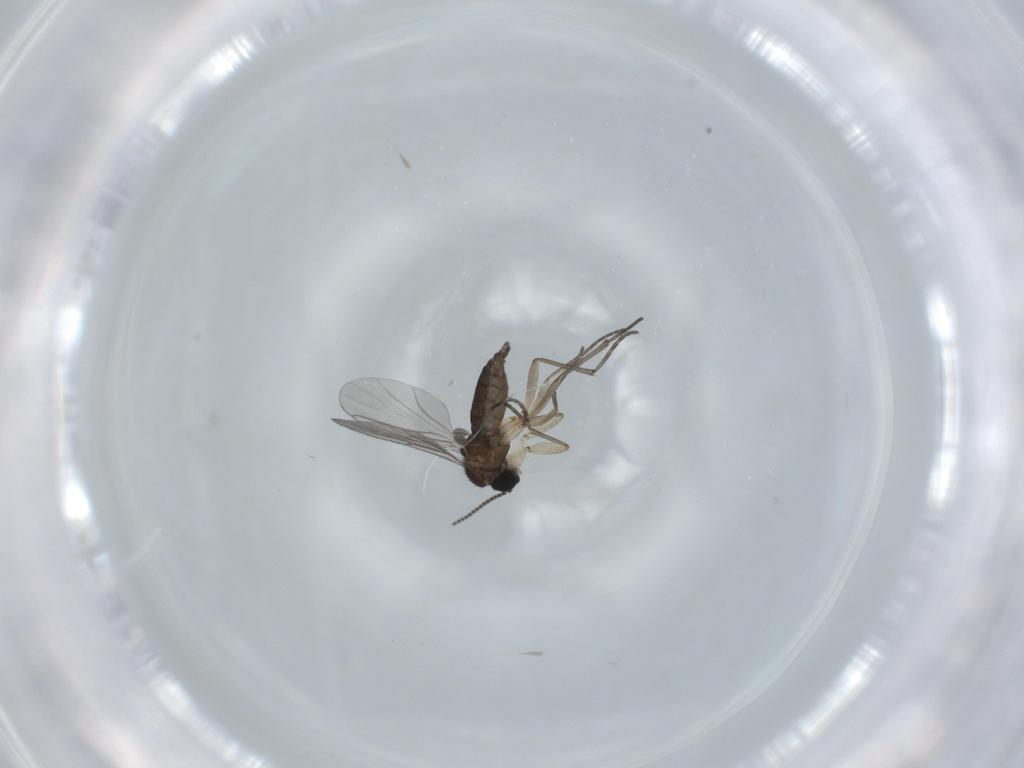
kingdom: Animalia
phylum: Arthropoda
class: Insecta
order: Diptera
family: Sciaridae
